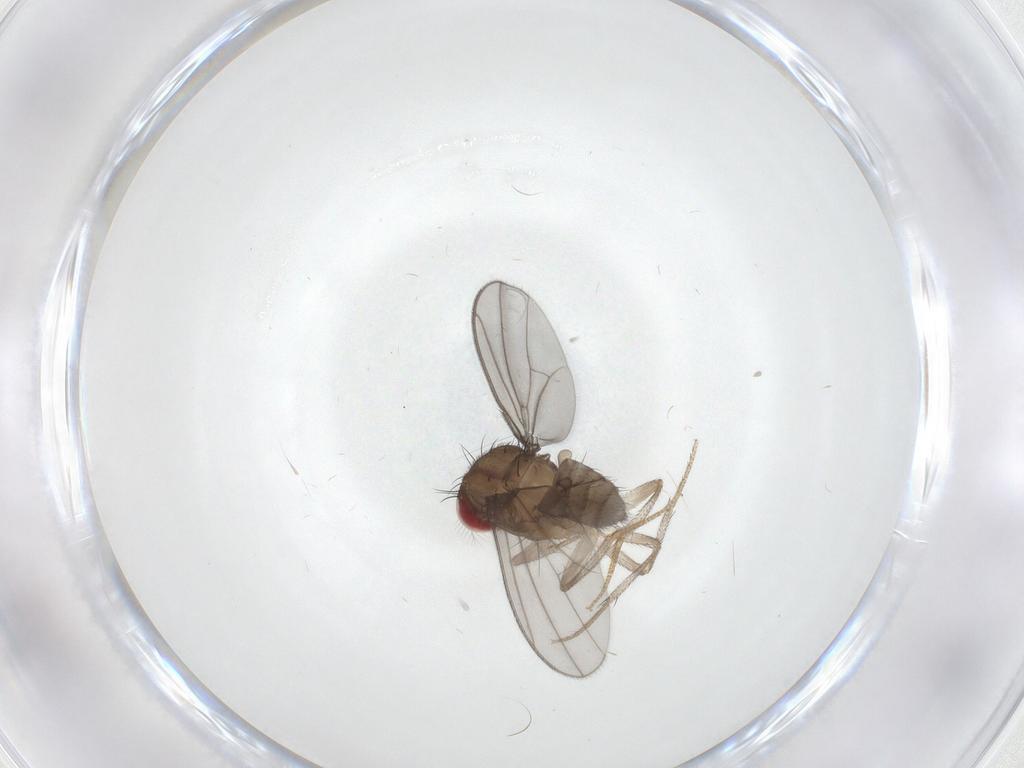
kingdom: Animalia
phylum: Arthropoda
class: Insecta
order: Diptera
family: Drosophilidae
